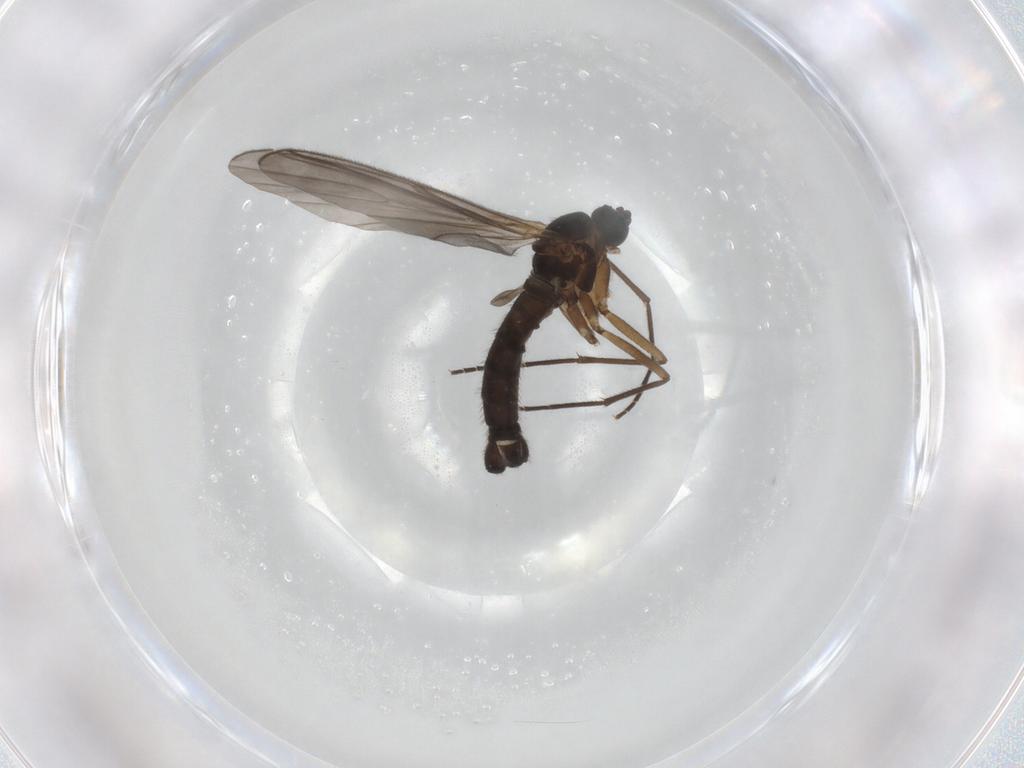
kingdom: Animalia
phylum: Arthropoda
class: Insecta
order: Diptera
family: Sciaridae
